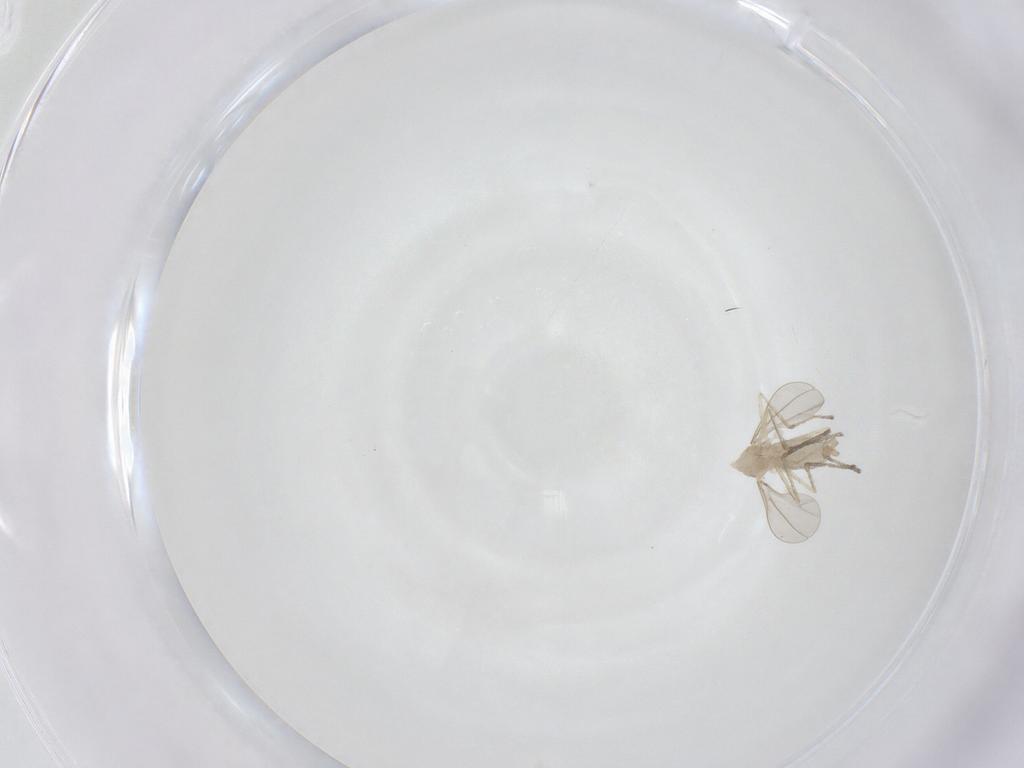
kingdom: Animalia
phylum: Arthropoda
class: Insecta
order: Diptera
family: Cecidomyiidae
